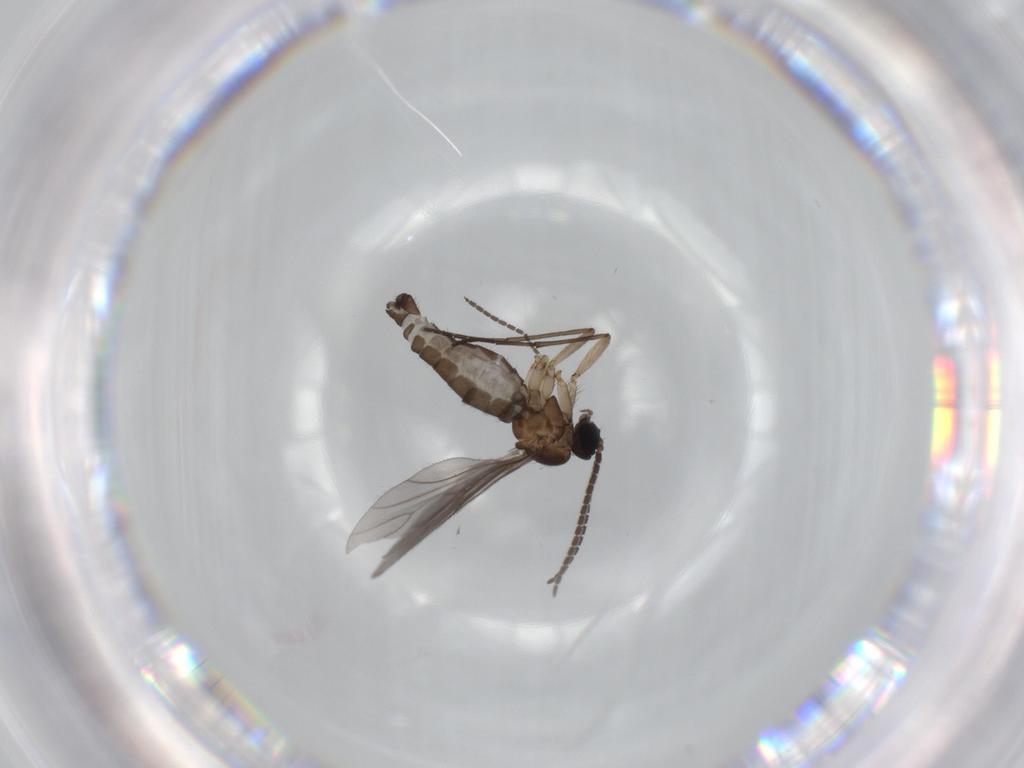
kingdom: Animalia
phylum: Arthropoda
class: Insecta
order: Diptera
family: Sciaridae
